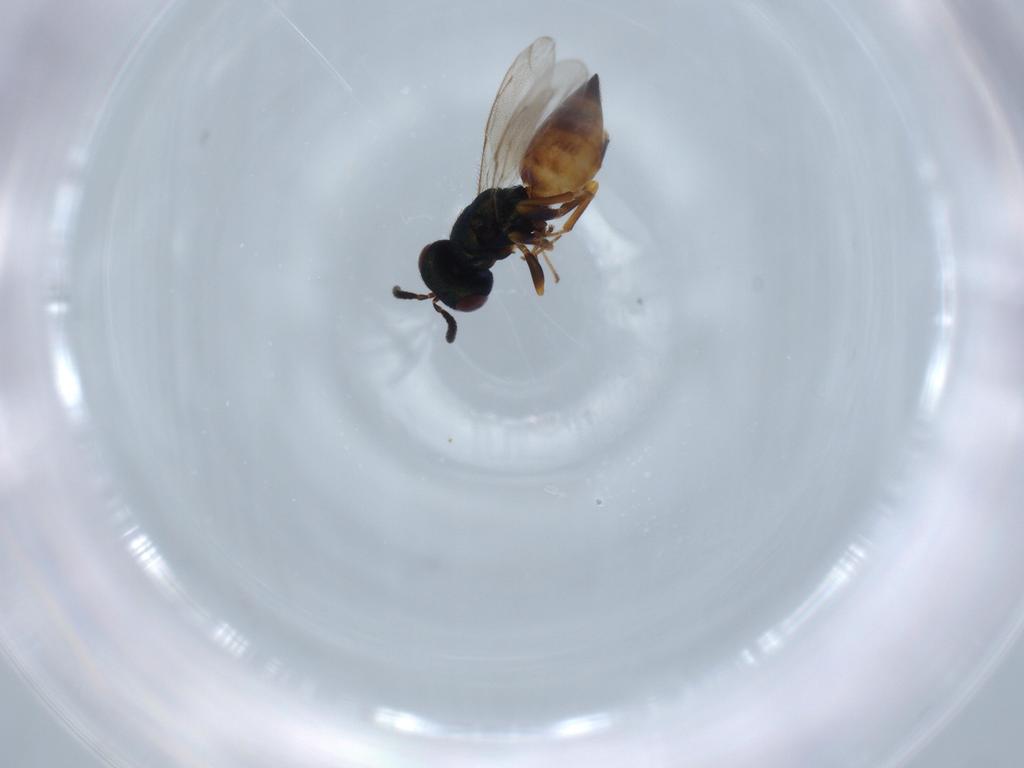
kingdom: Animalia
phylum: Arthropoda
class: Insecta
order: Hymenoptera
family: Pteromalidae
